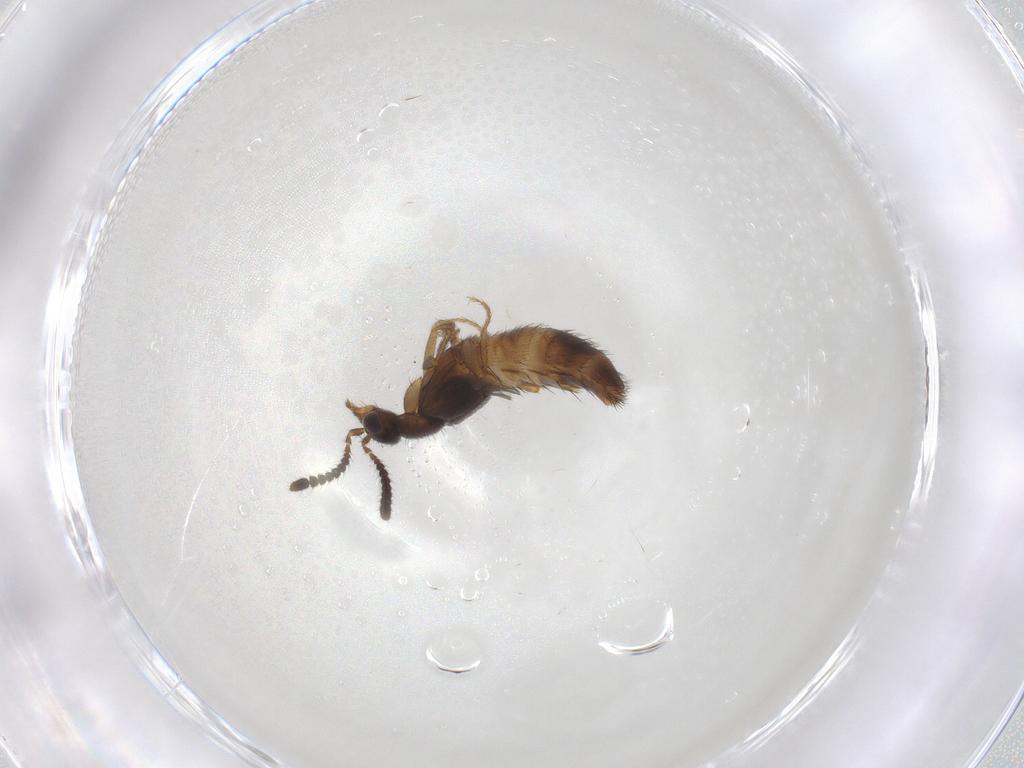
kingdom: Animalia
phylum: Arthropoda
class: Insecta
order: Coleoptera
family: Staphylinidae
